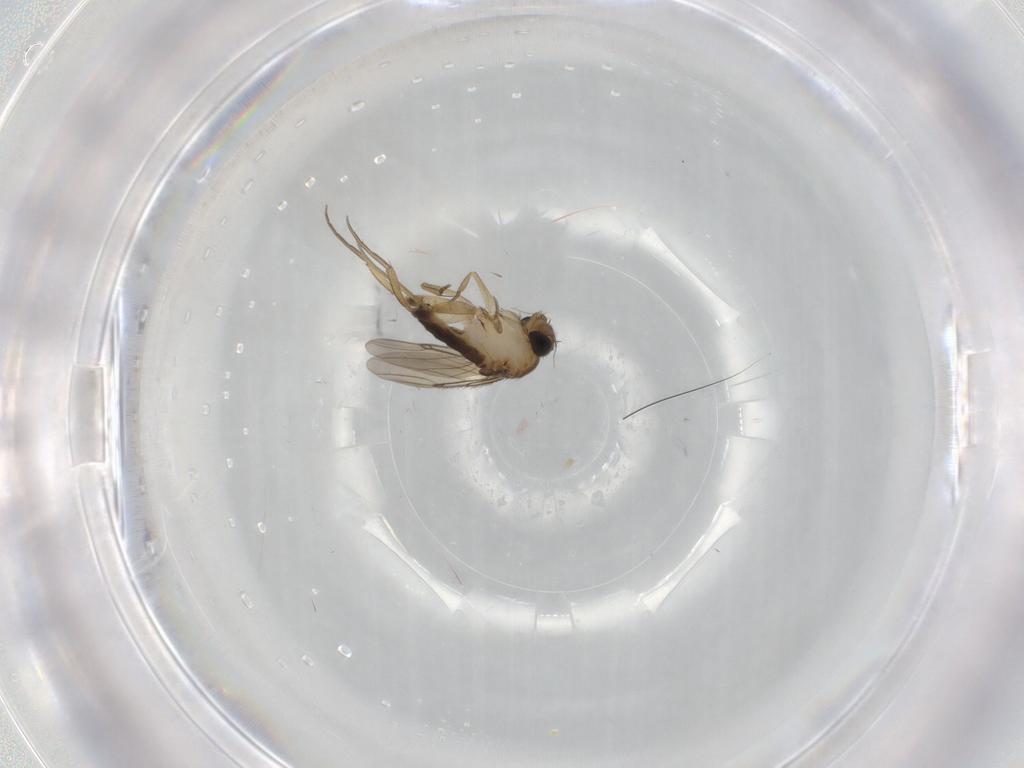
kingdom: Animalia
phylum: Arthropoda
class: Insecta
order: Diptera
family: Phoridae
